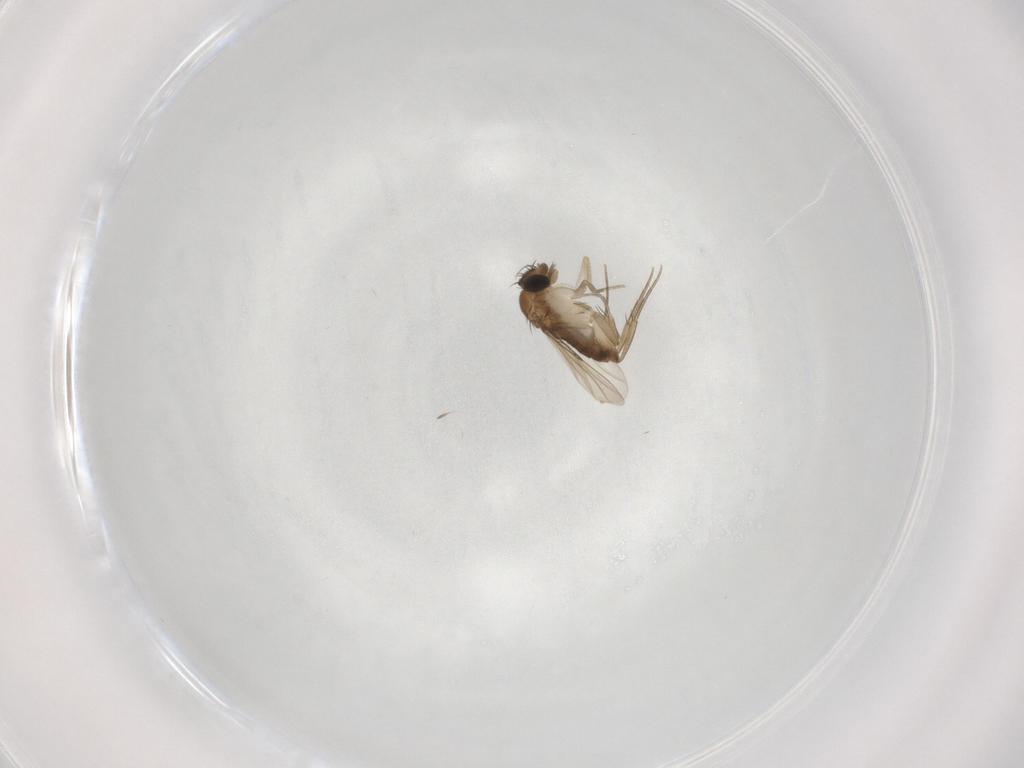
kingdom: Animalia
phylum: Arthropoda
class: Insecta
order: Diptera
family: Phoridae
